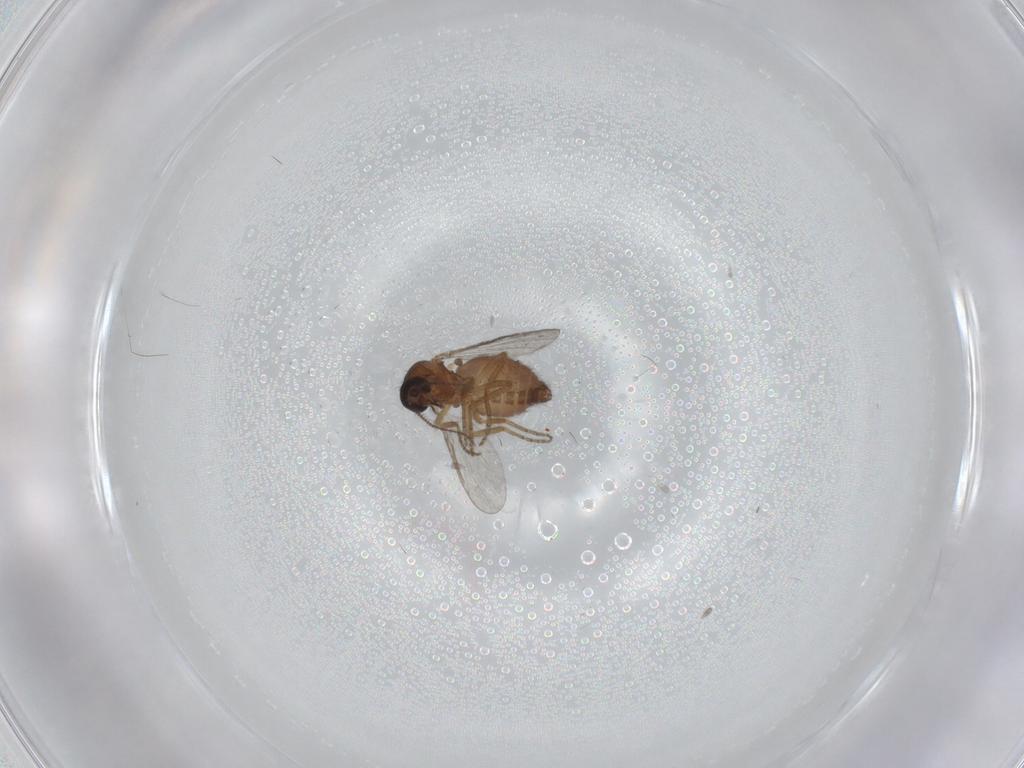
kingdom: Animalia
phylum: Arthropoda
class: Insecta
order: Diptera
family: Ceratopogonidae
